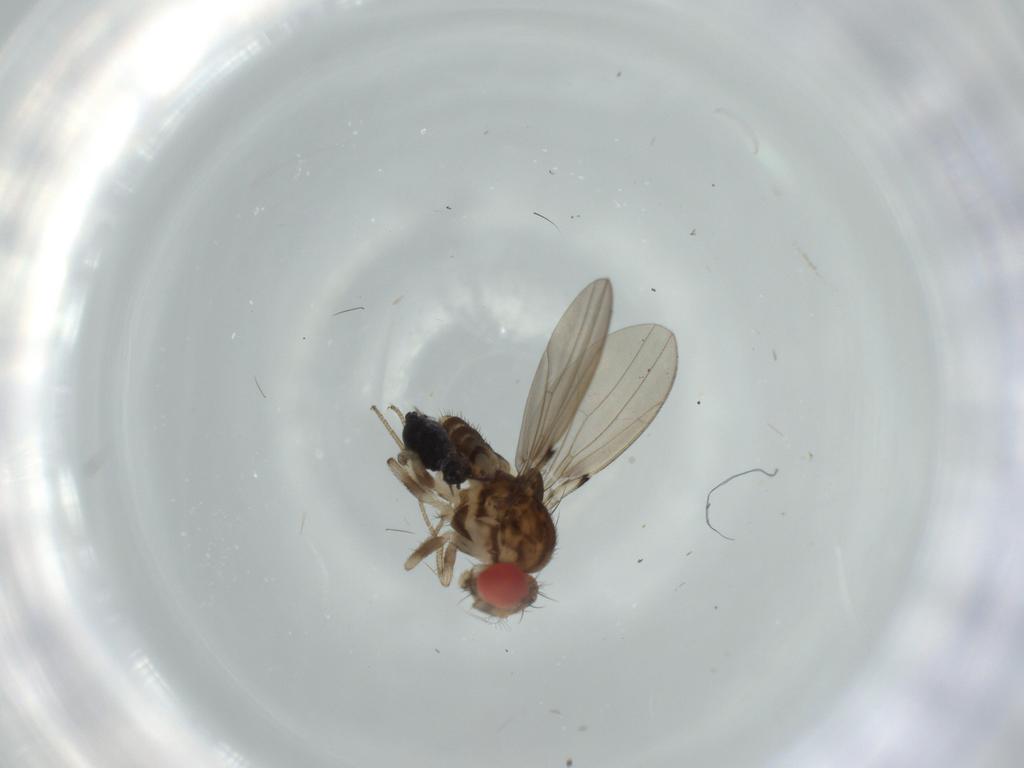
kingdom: Animalia
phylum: Arthropoda
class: Insecta
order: Diptera
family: Drosophilidae
